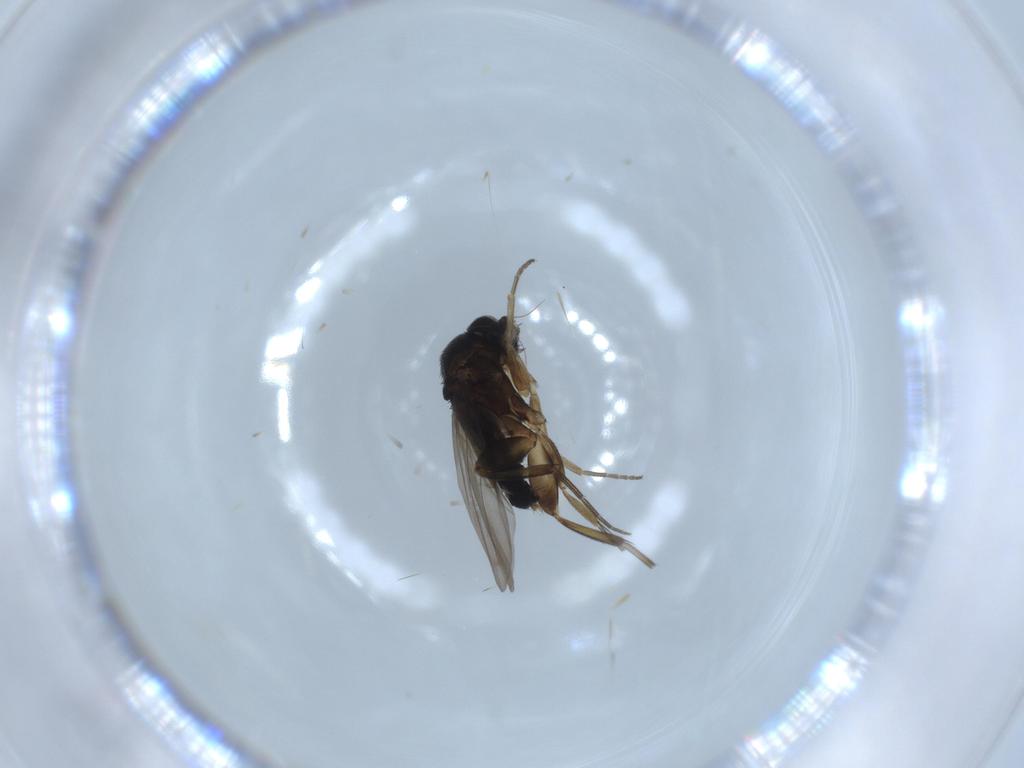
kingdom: Animalia
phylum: Arthropoda
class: Insecta
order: Diptera
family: Phoridae
